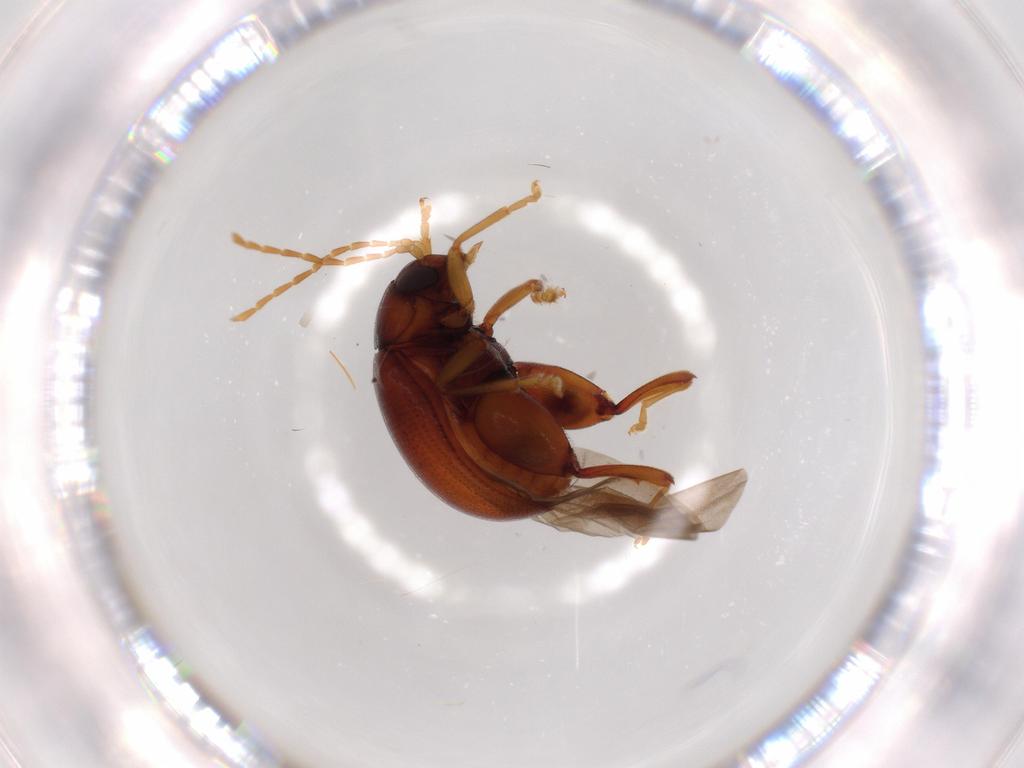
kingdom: Animalia
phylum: Arthropoda
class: Insecta
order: Coleoptera
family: Chrysomelidae
